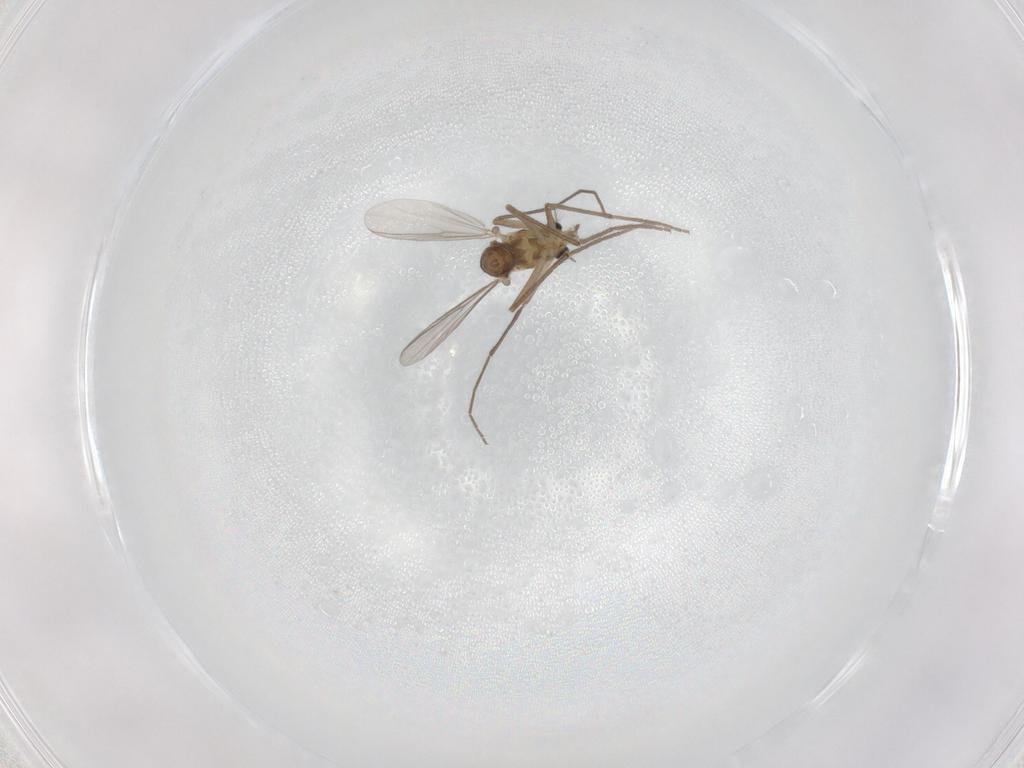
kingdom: Animalia
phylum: Arthropoda
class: Insecta
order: Diptera
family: Chironomidae
